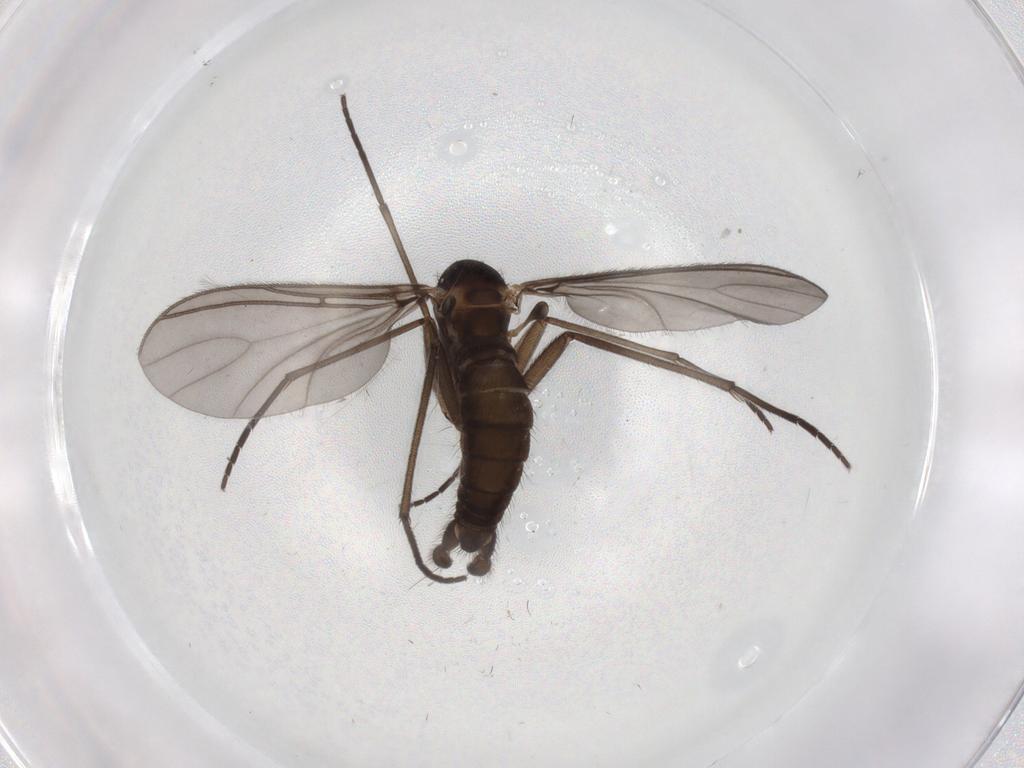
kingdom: Animalia
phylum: Arthropoda
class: Insecta
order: Diptera
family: Sciaridae
